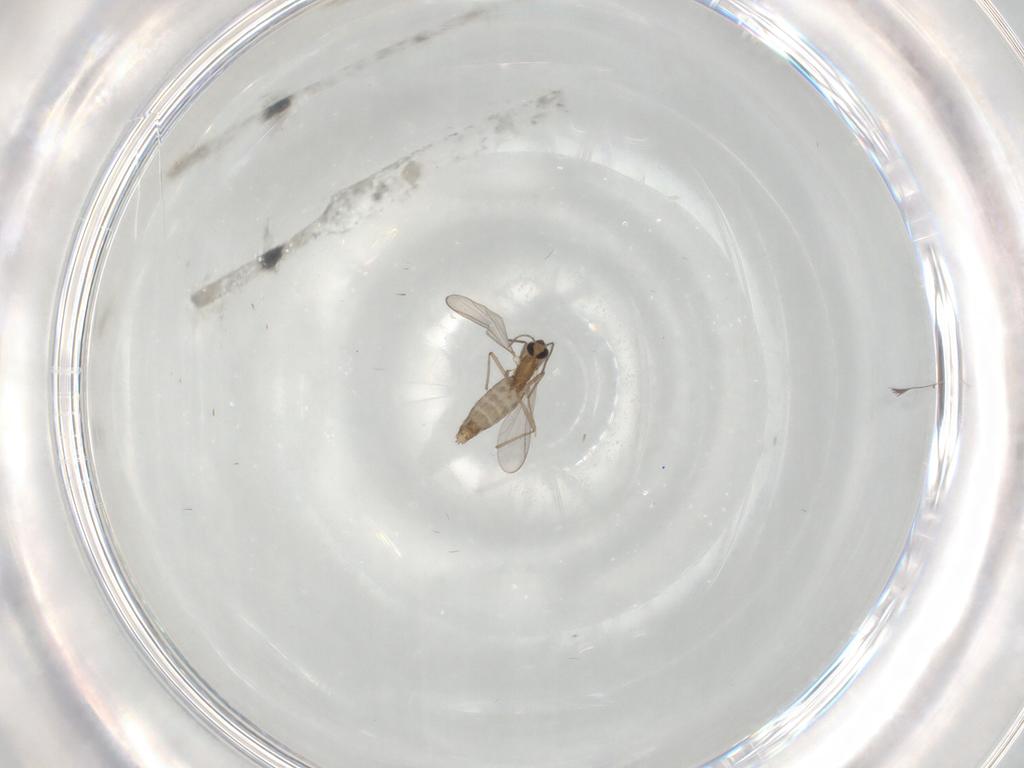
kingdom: Animalia
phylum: Arthropoda
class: Insecta
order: Diptera
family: Chironomidae
